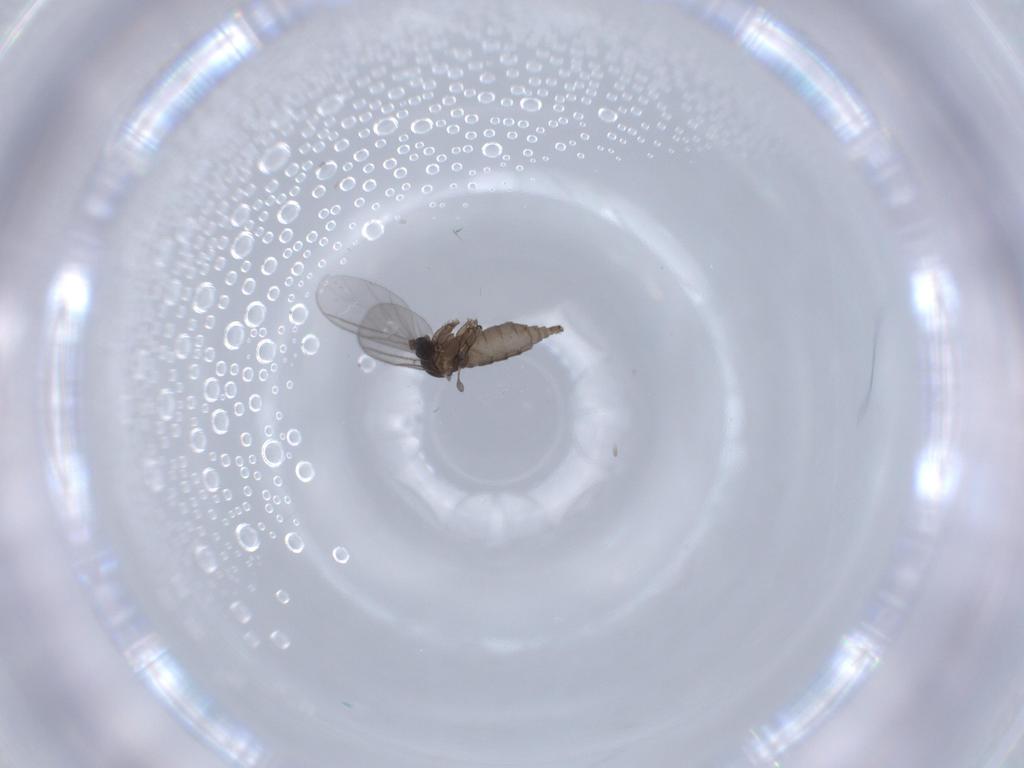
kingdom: Animalia
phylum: Arthropoda
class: Insecta
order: Diptera
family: Sciaridae
